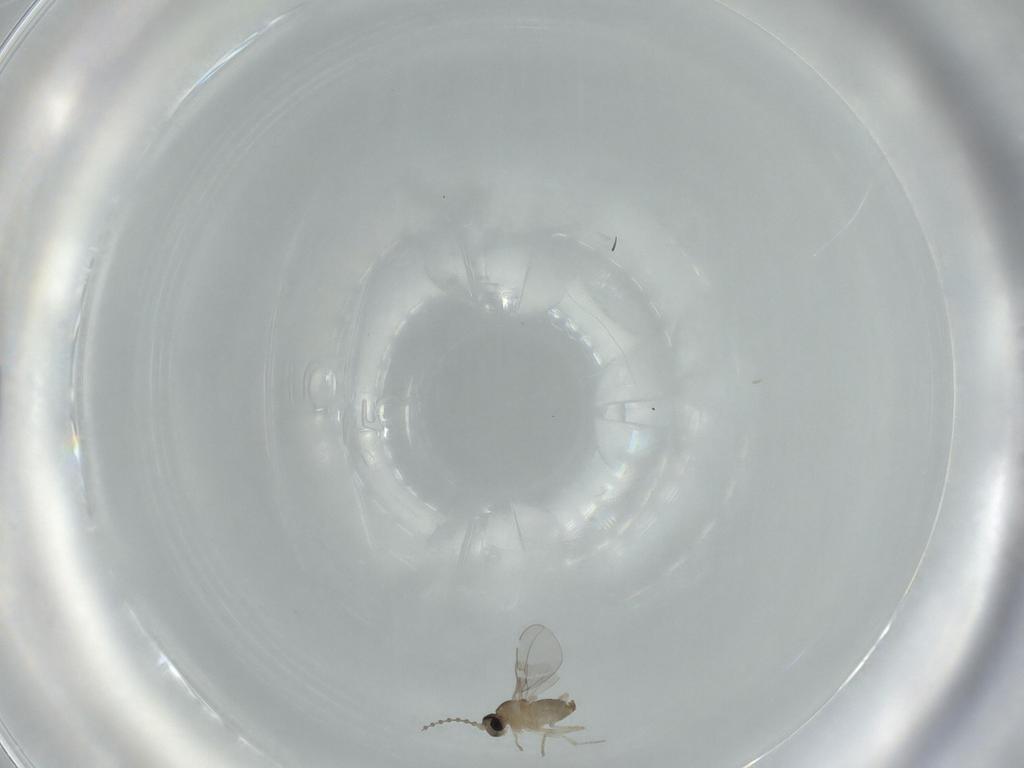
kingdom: Animalia
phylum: Arthropoda
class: Insecta
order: Diptera
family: Cecidomyiidae
